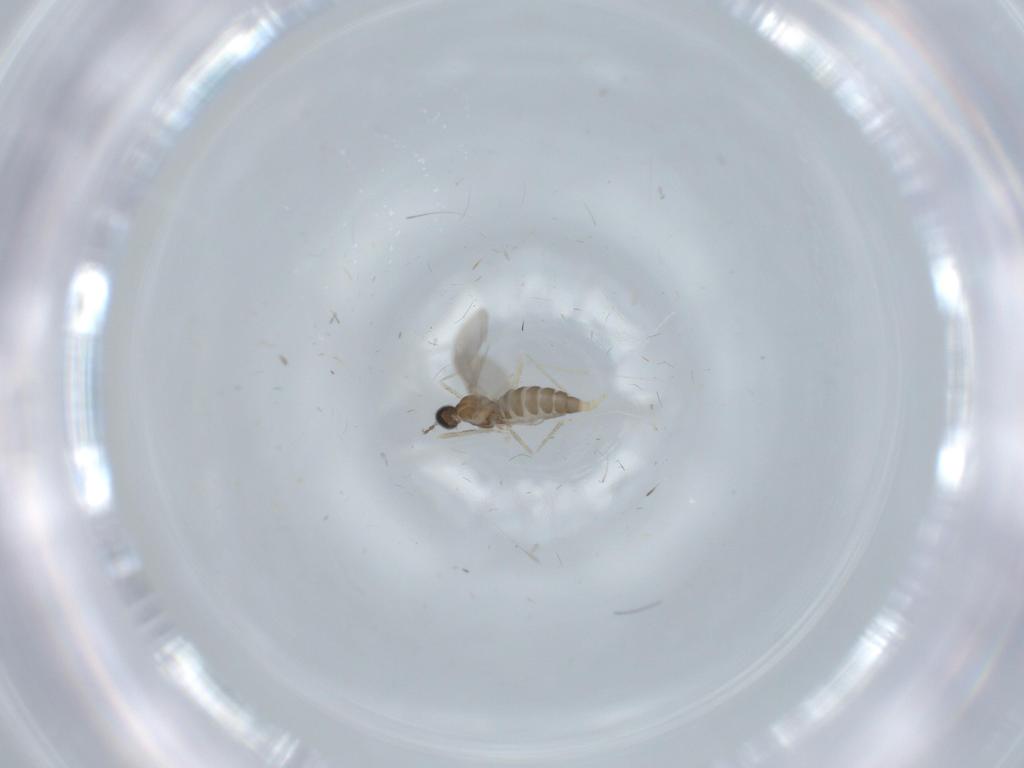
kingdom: Animalia
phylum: Arthropoda
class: Insecta
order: Diptera
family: Cecidomyiidae
